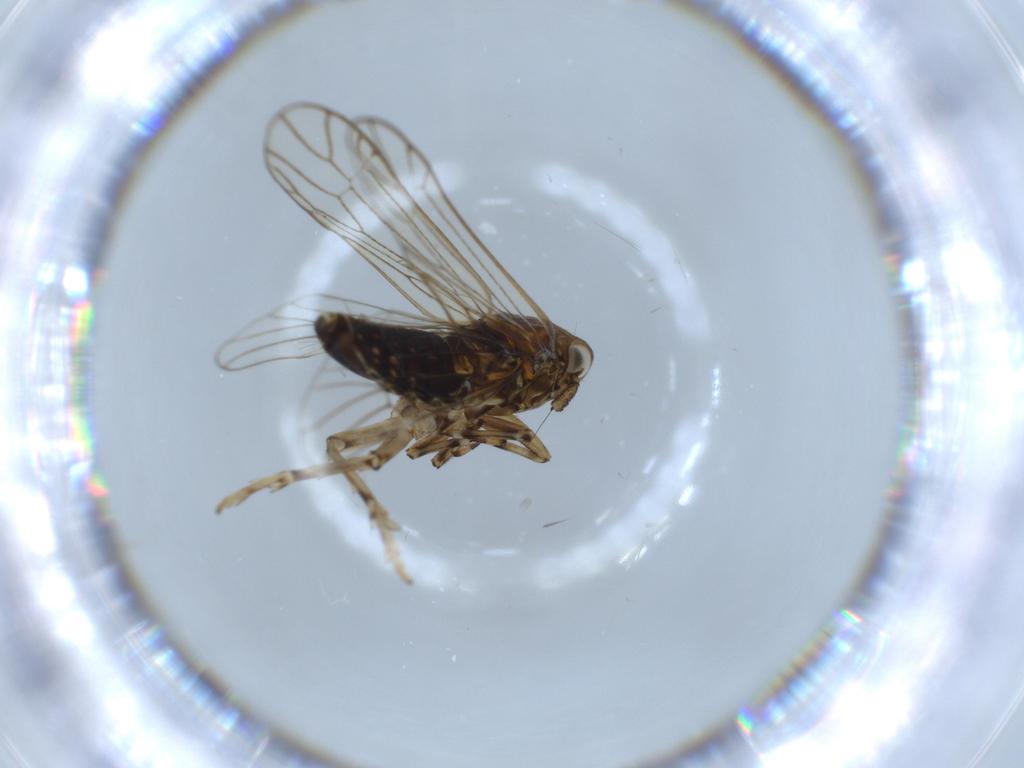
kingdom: Animalia
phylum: Arthropoda
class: Insecta
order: Hemiptera
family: Delphacidae
